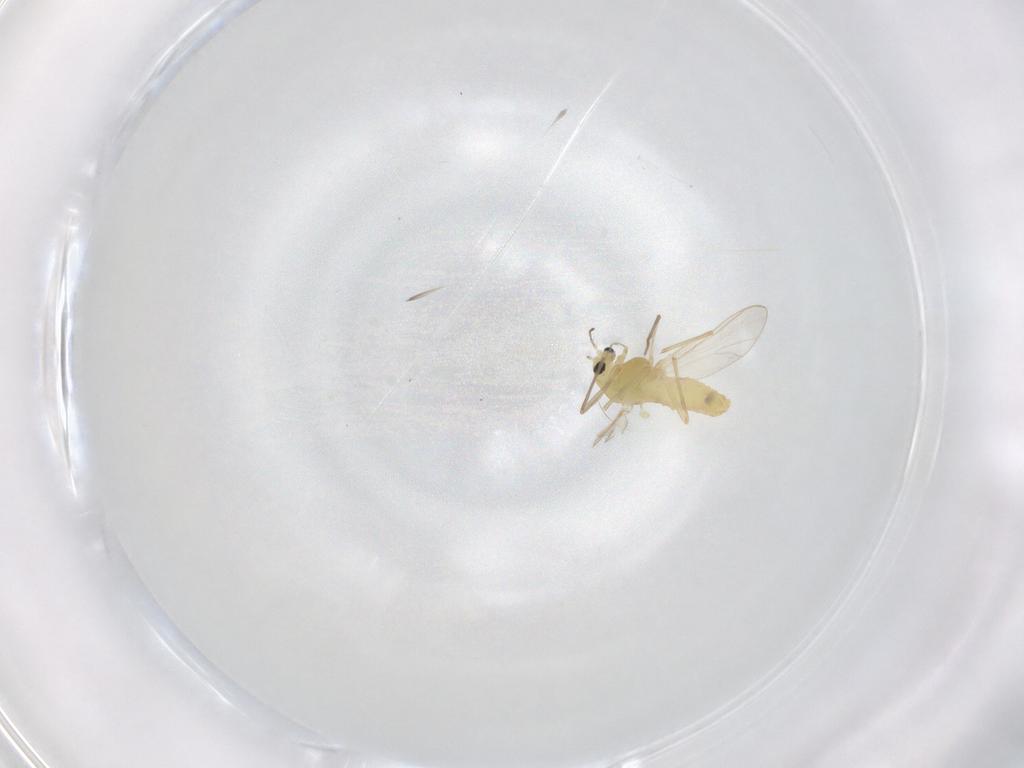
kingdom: Animalia
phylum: Arthropoda
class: Insecta
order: Diptera
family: Chironomidae
